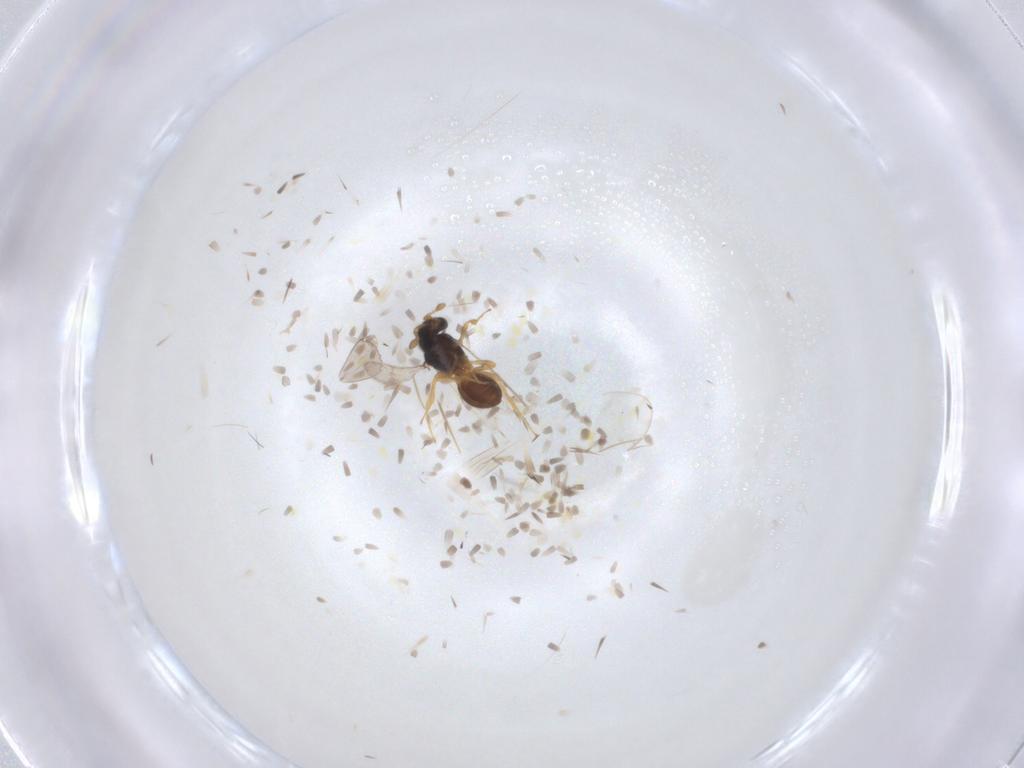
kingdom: Animalia
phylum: Arthropoda
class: Insecta
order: Hymenoptera
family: Scelionidae
